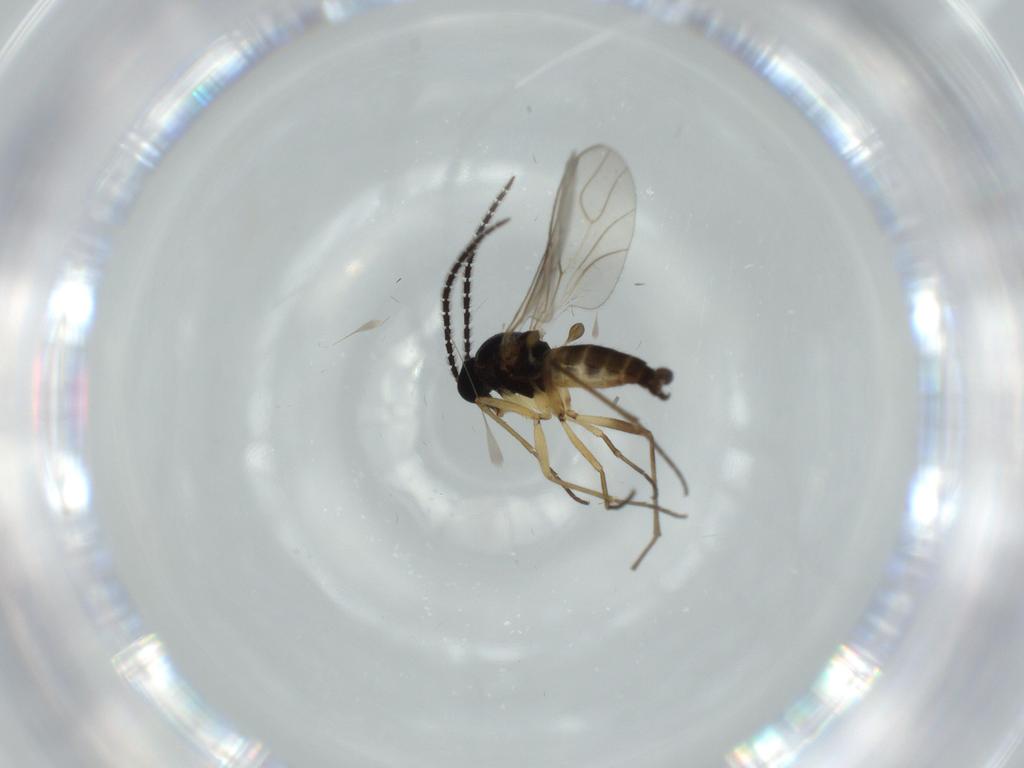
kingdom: Animalia
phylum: Arthropoda
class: Insecta
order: Diptera
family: Sciaridae
